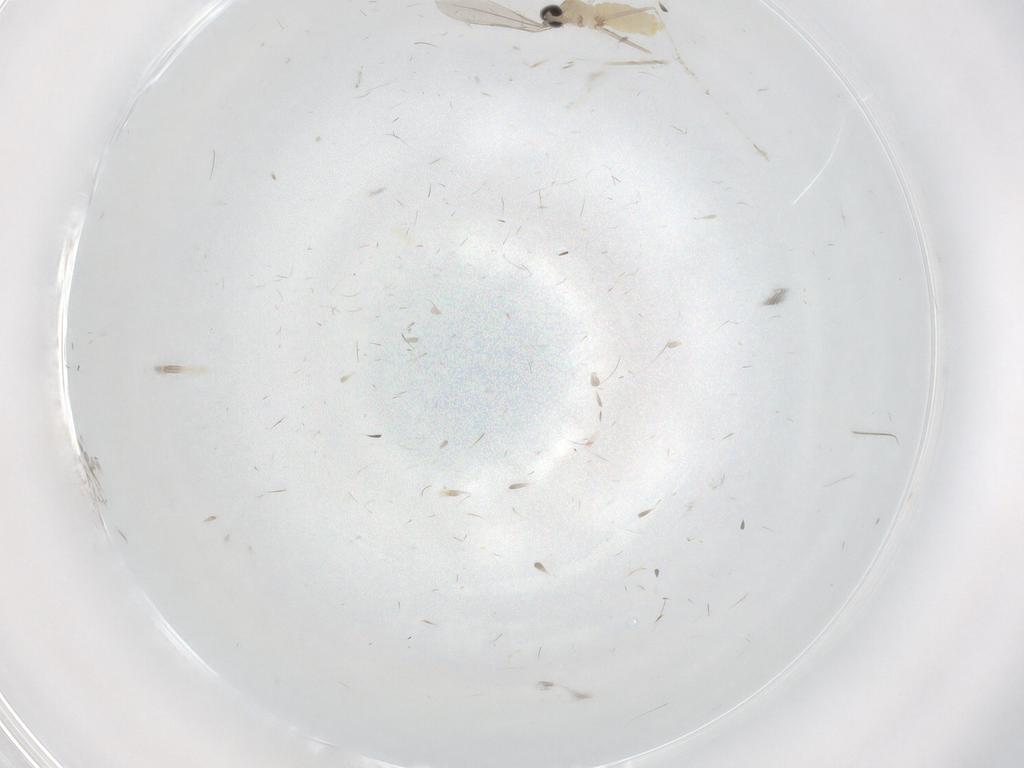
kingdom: Animalia
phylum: Arthropoda
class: Insecta
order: Diptera
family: Cecidomyiidae
